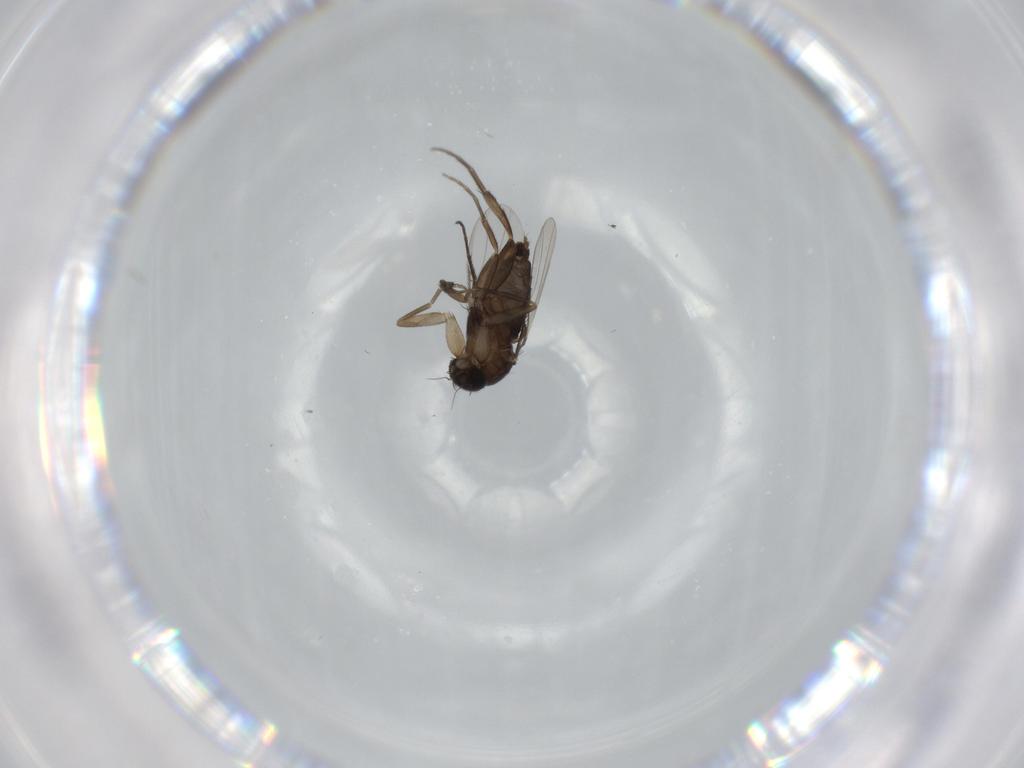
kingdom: Animalia
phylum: Arthropoda
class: Insecta
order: Diptera
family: Phoridae
